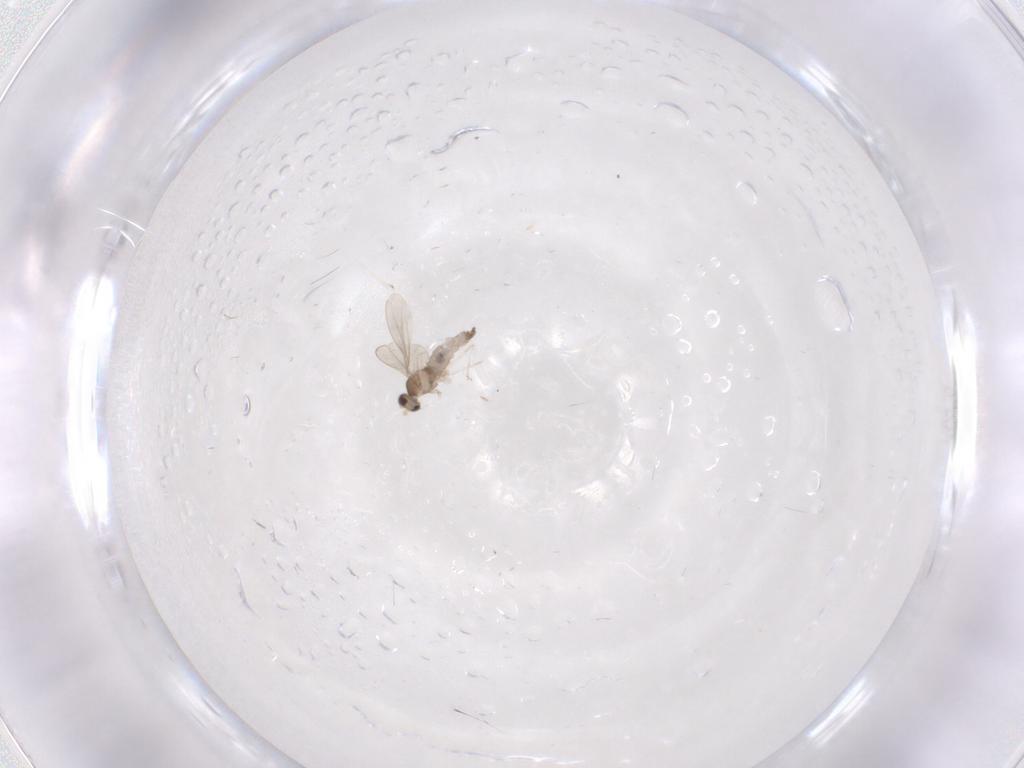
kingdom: Animalia
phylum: Arthropoda
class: Insecta
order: Diptera
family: Cecidomyiidae
